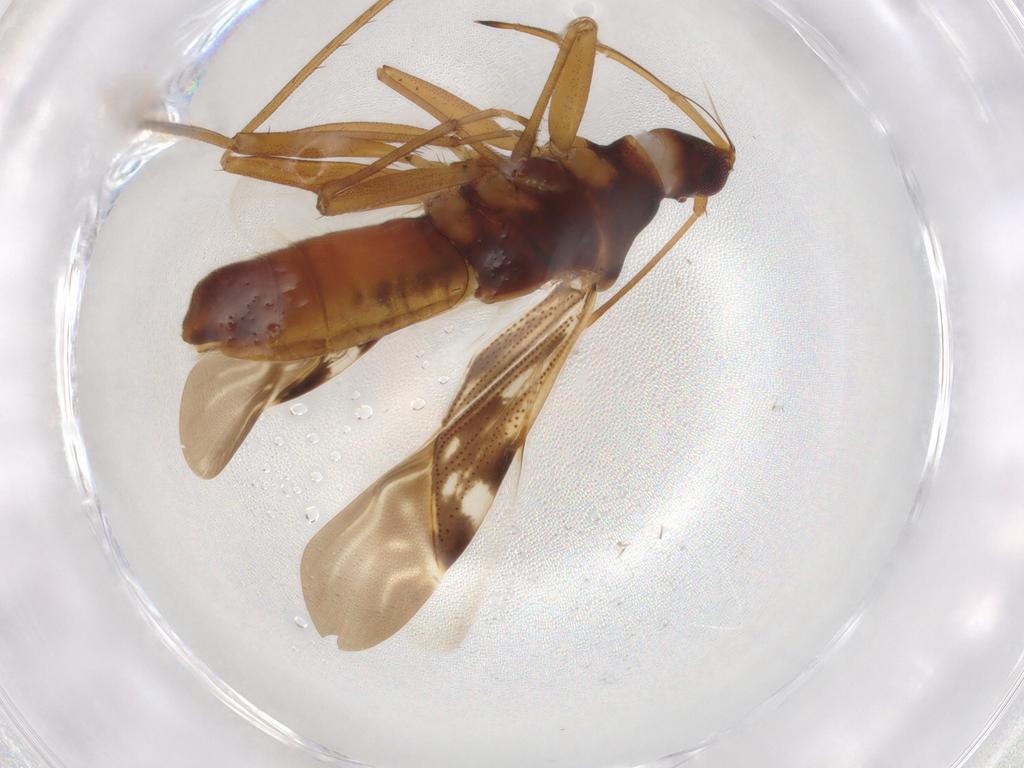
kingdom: Animalia
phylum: Arthropoda
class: Insecta
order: Hemiptera
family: Rhyparochromidae
